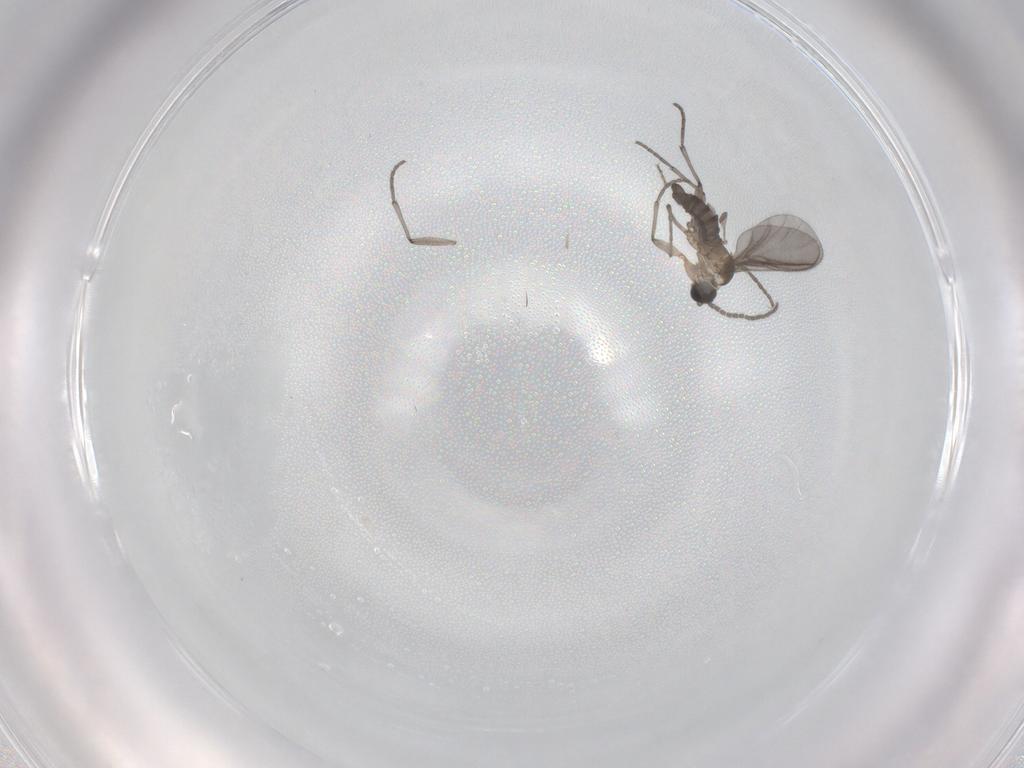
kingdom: Animalia
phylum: Arthropoda
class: Insecta
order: Diptera
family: Sciaridae
